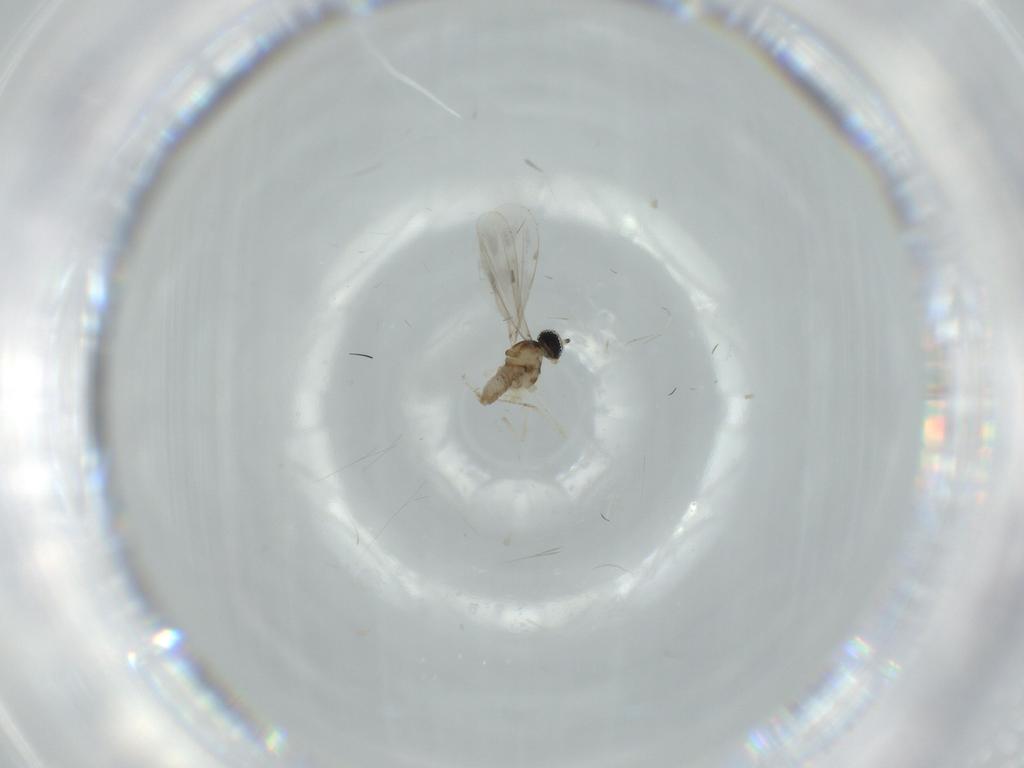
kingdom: Animalia
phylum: Arthropoda
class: Insecta
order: Diptera
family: Cecidomyiidae
